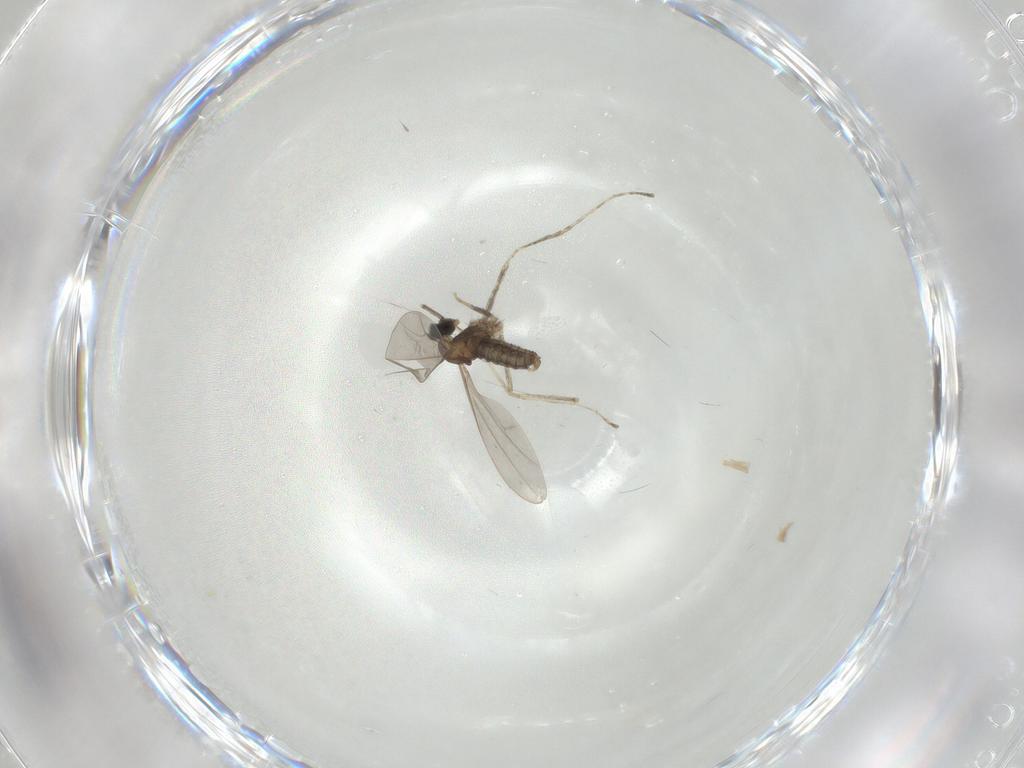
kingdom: Animalia
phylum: Arthropoda
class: Insecta
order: Diptera
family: Cecidomyiidae
